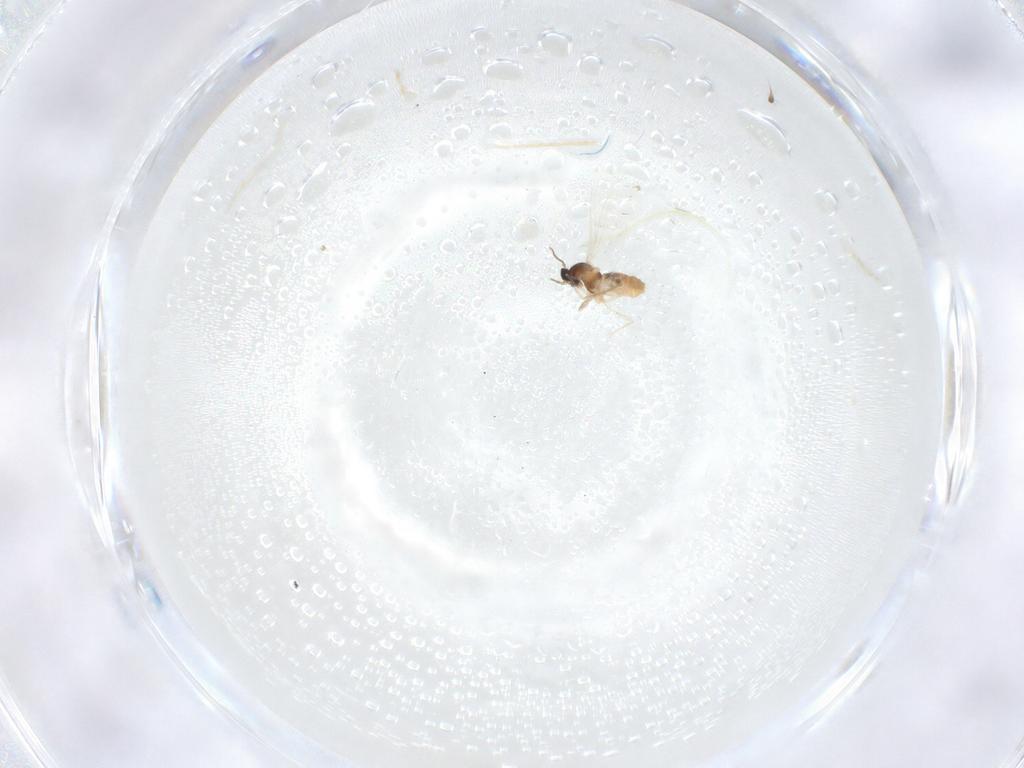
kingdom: Animalia
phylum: Arthropoda
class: Insecta
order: Diptera
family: Cecidomyiidae
